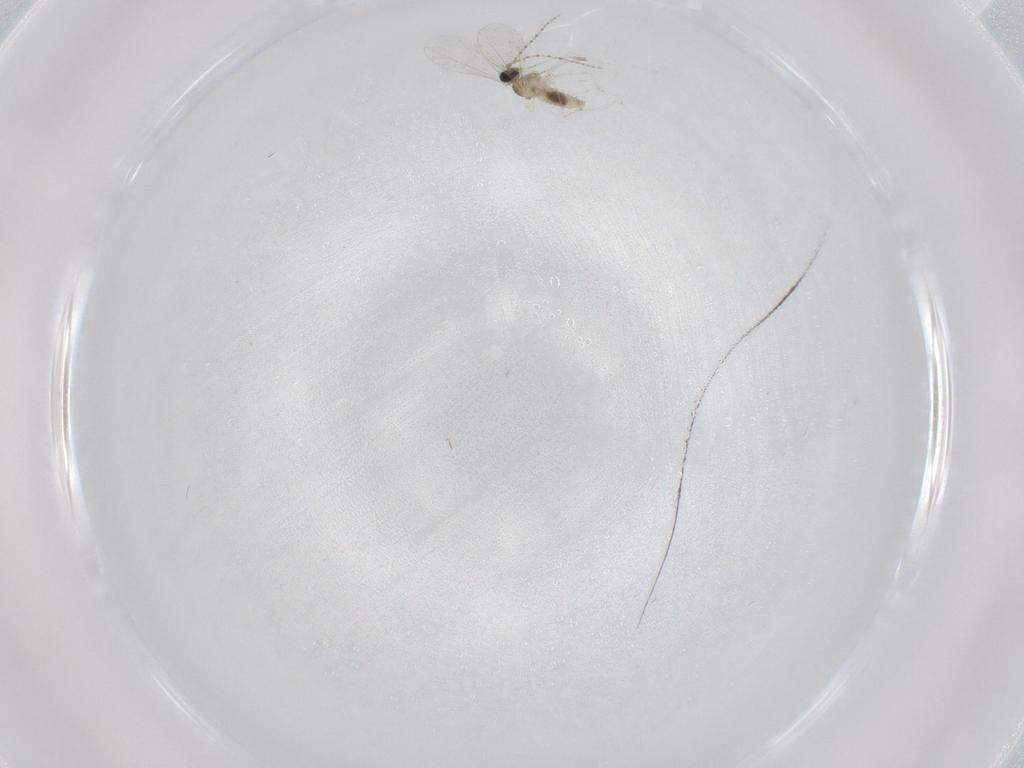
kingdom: Animalia
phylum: Arthropoda
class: Insecta
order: Diptera
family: Cecidomyiidae
